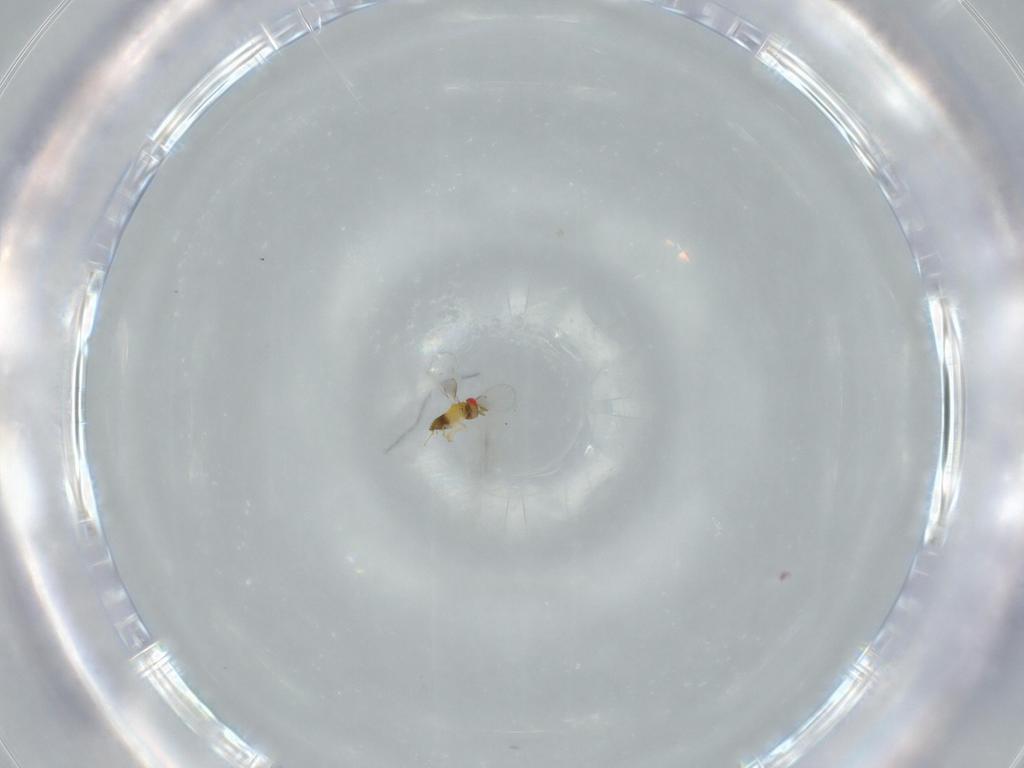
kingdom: Animalia
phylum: Arthropoda
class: Insecta
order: Hymenoptera
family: Trichogrammatidae
